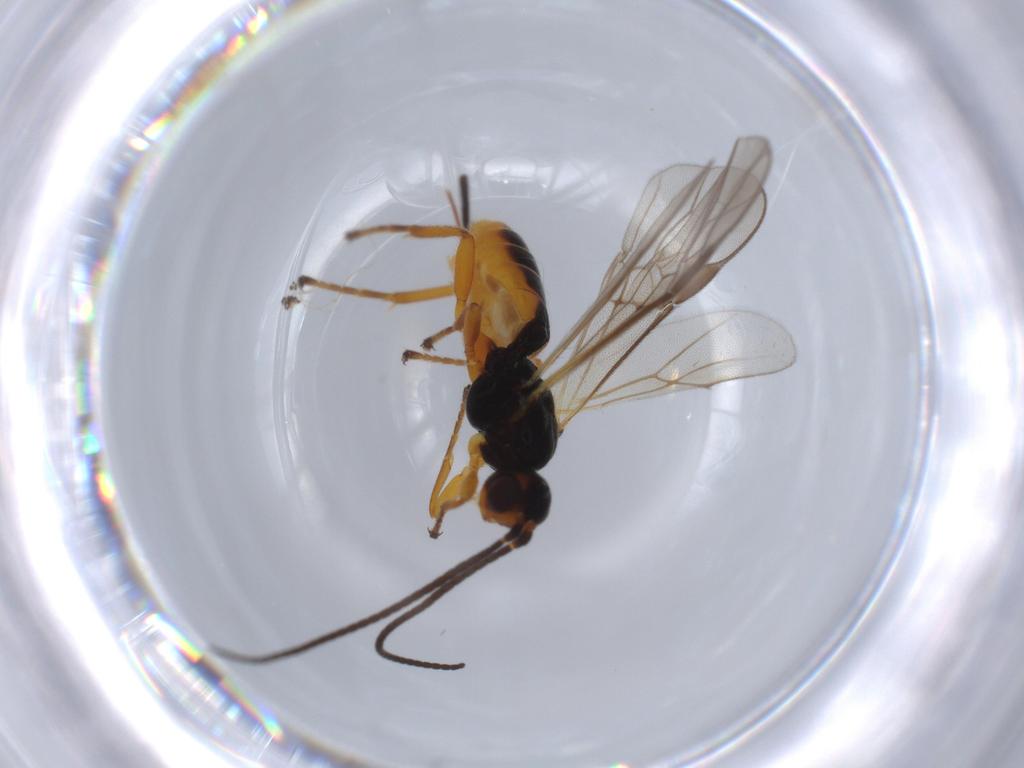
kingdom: Animalia
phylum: Arthropoda
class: Insecta
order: Hymenoptera
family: Braconidae
